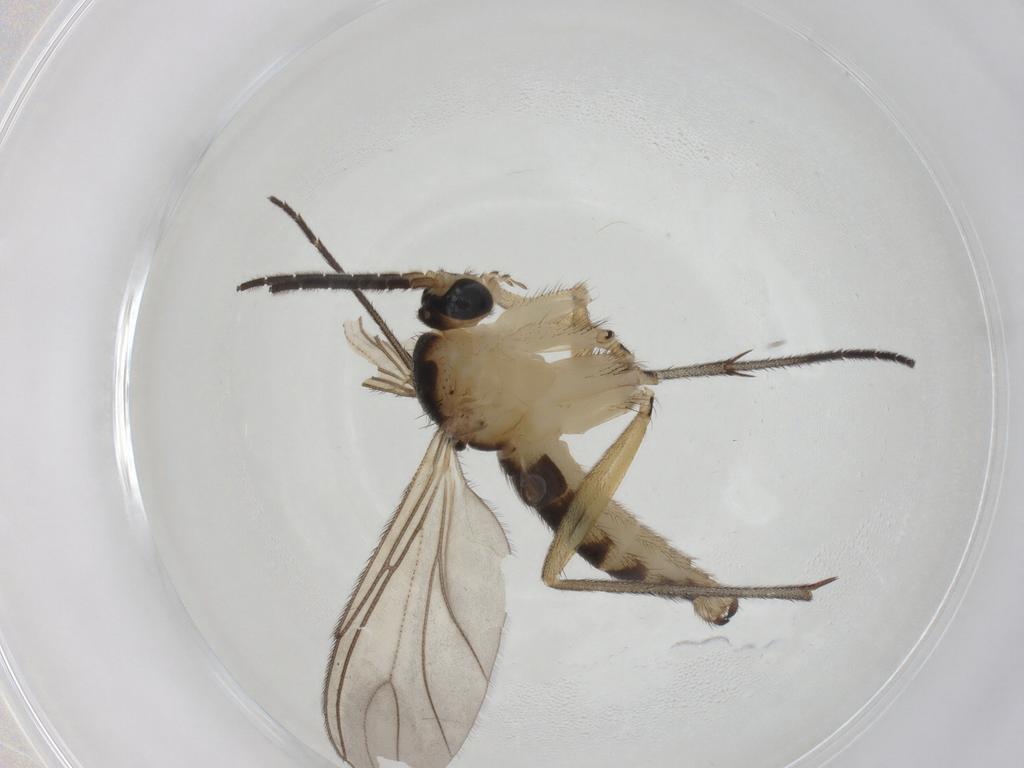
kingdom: Animalia
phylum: Arthropoda
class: Insecta
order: Diptera
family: Sciaridae
